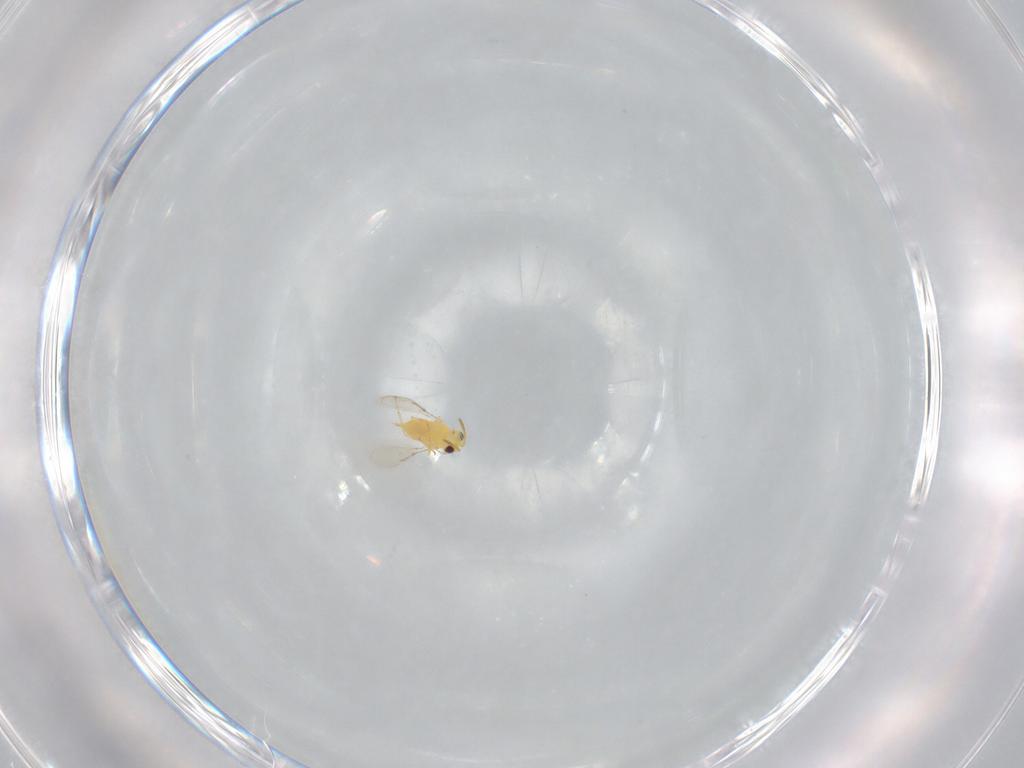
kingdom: Animalia
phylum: Arthropoda
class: Insecta
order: Hymenoptera
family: Aphelinidae
